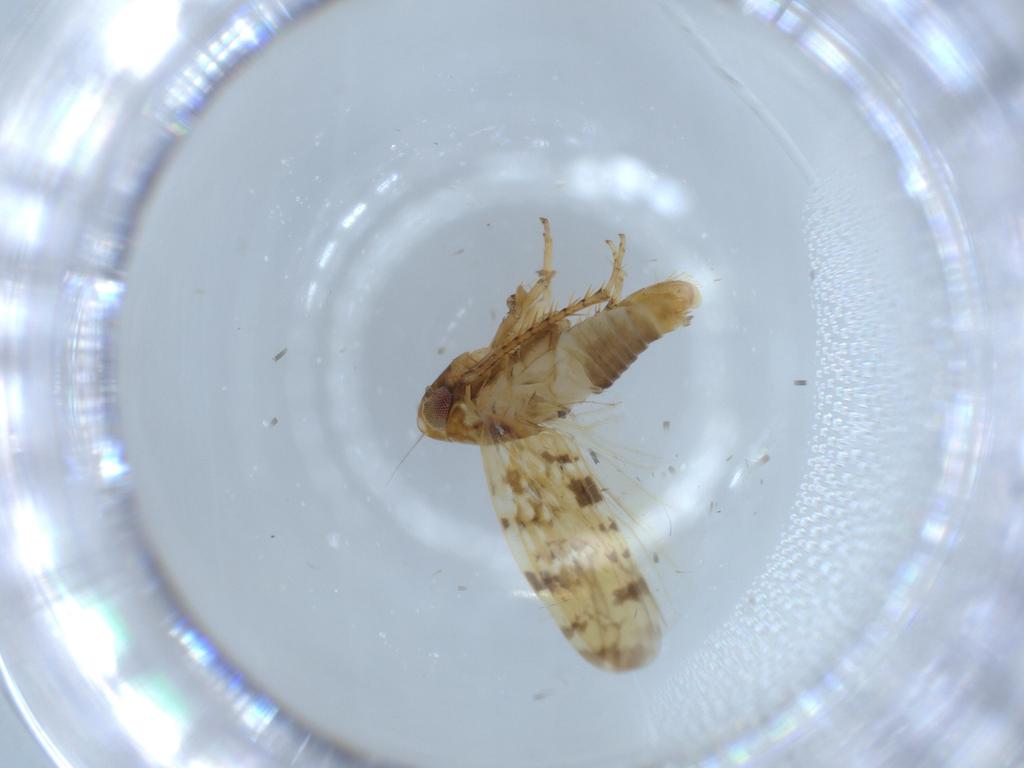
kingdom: Animalia
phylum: Arthropoda
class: Insecta
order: Hemiptera
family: Cicadellidae
